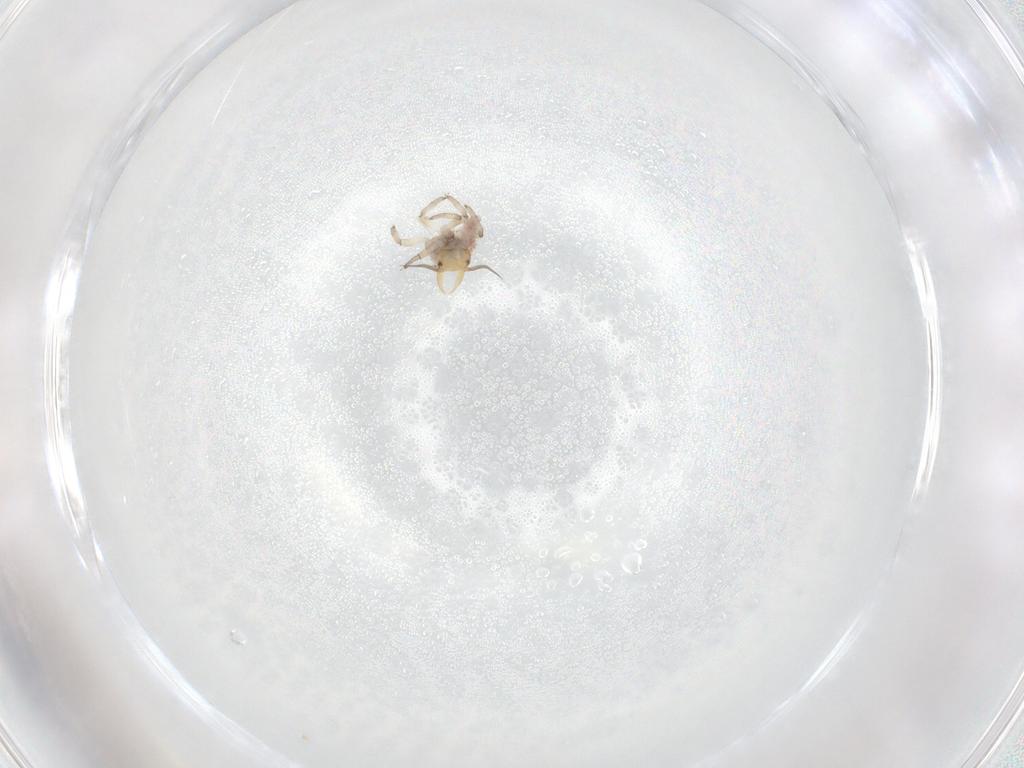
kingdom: Animalia
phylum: Arthropoda
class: Insecta
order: Neuroptera
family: Hemerobiidae
